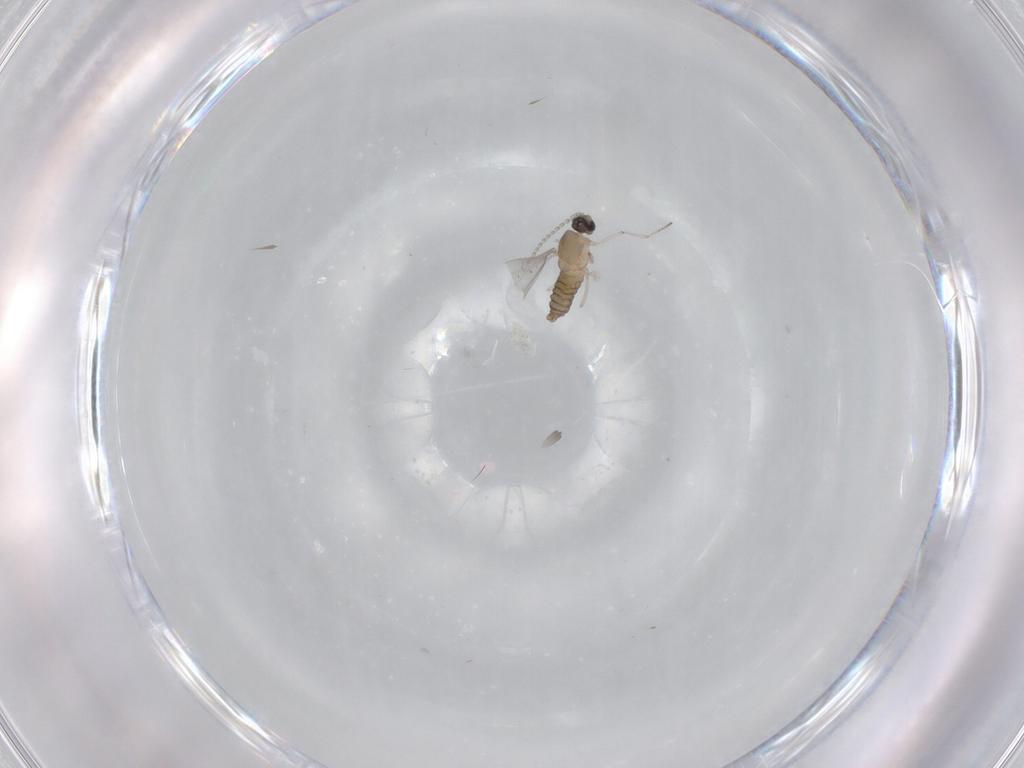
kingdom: Animalia
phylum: Arthropoda
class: Insecta
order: Diptera
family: Cecidomyiidae
